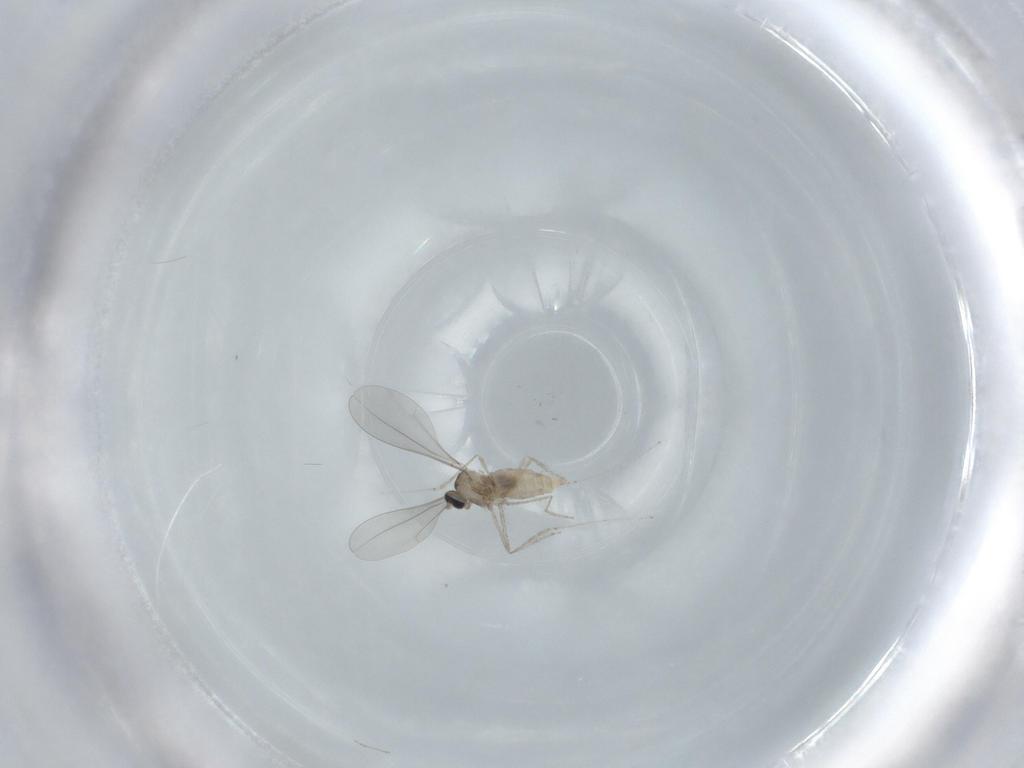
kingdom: Animalia
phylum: Arthropoda
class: Insecta
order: Diptera
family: Cecidomyiidae
